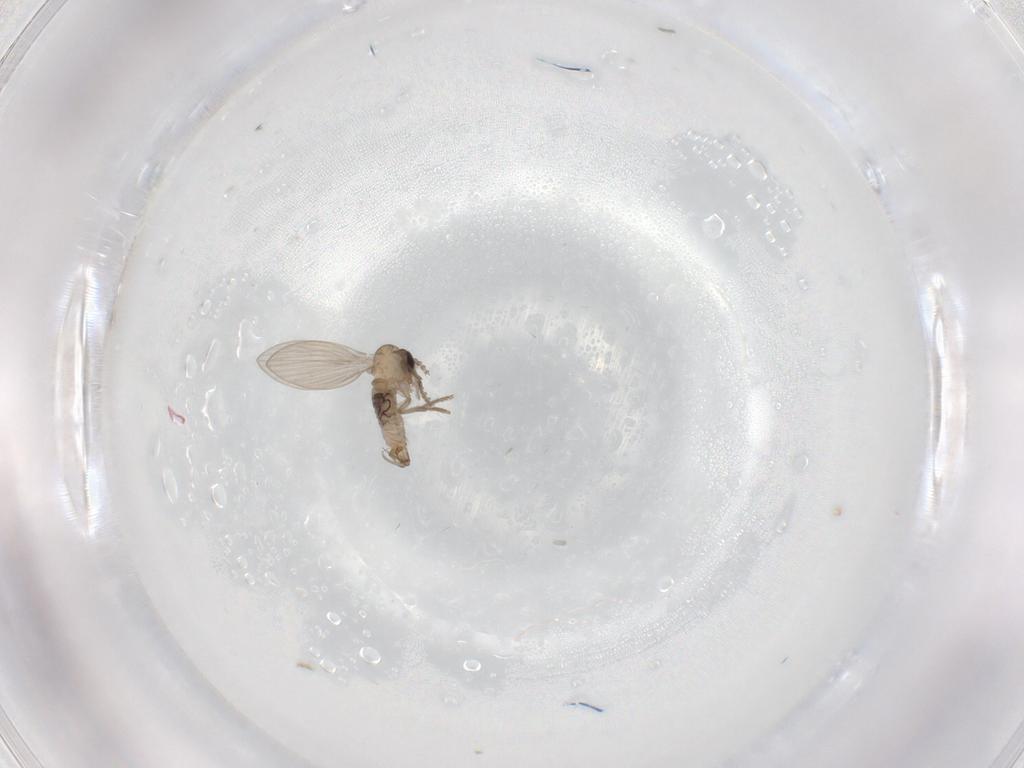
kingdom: Animalia
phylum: Arthropoda
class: Insecta
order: Diptera
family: Psychodidae
